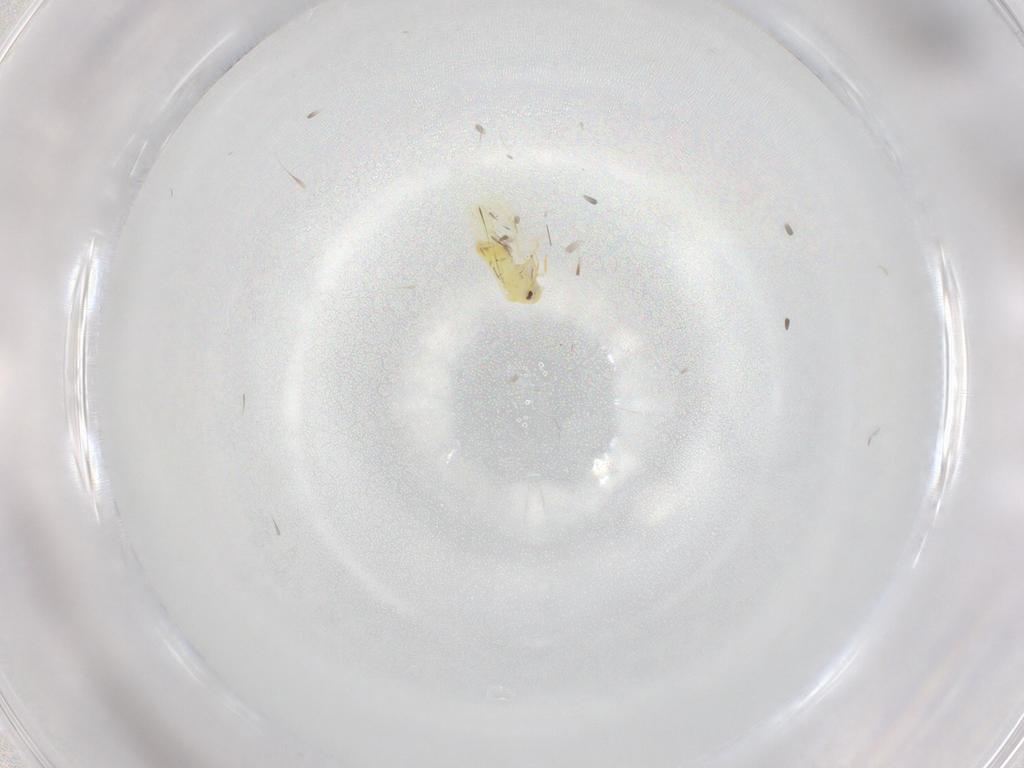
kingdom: Animalia
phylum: Arthropoda
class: Insecta
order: Hemiptera
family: Aleyrodidae
